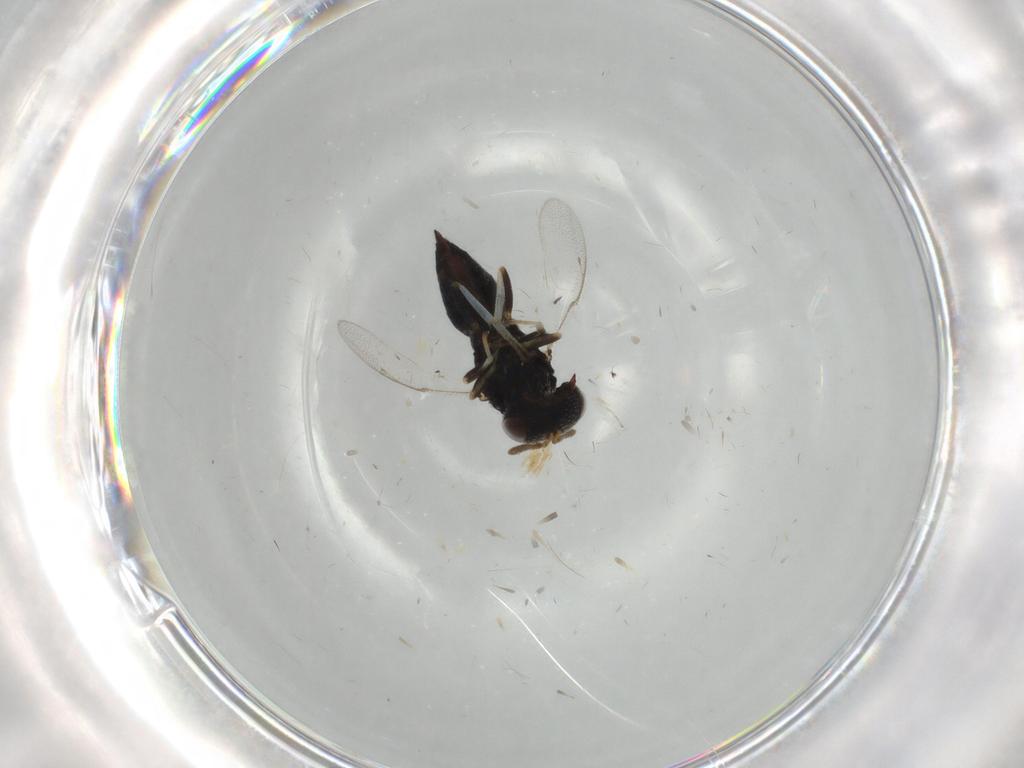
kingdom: Animalia
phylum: Arthropoda
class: Insecta
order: Hymenoptera
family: Pteromalidae
